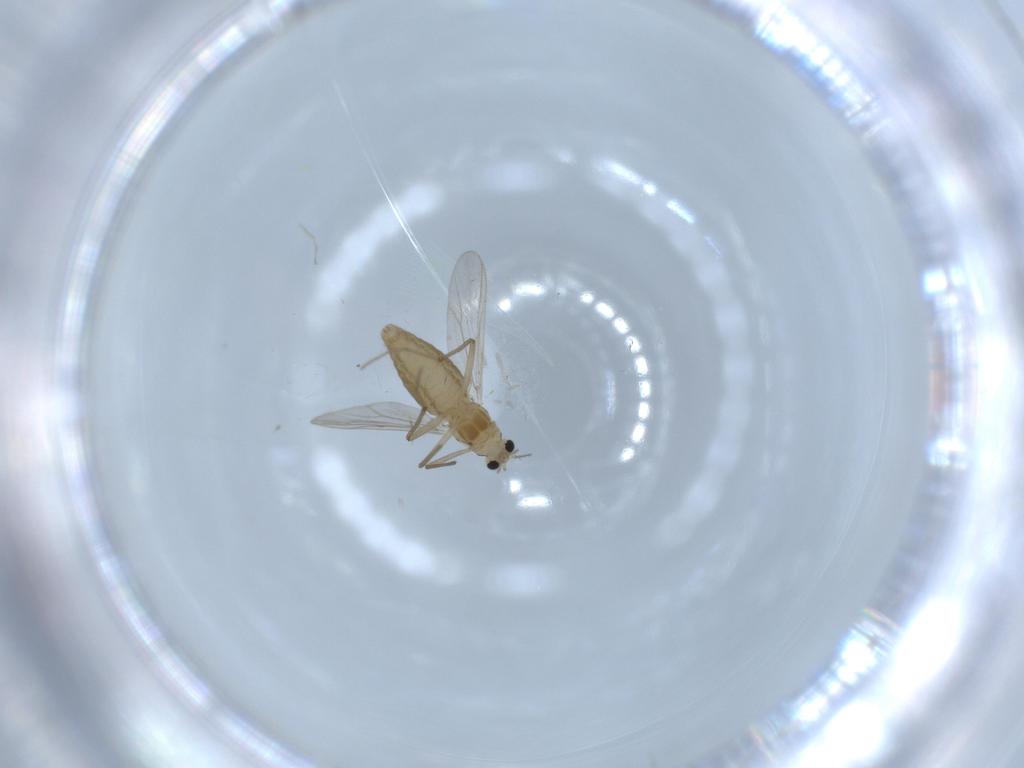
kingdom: Animalia
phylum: Arthropoda
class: Insecta
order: Diptera
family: Chironomidae
